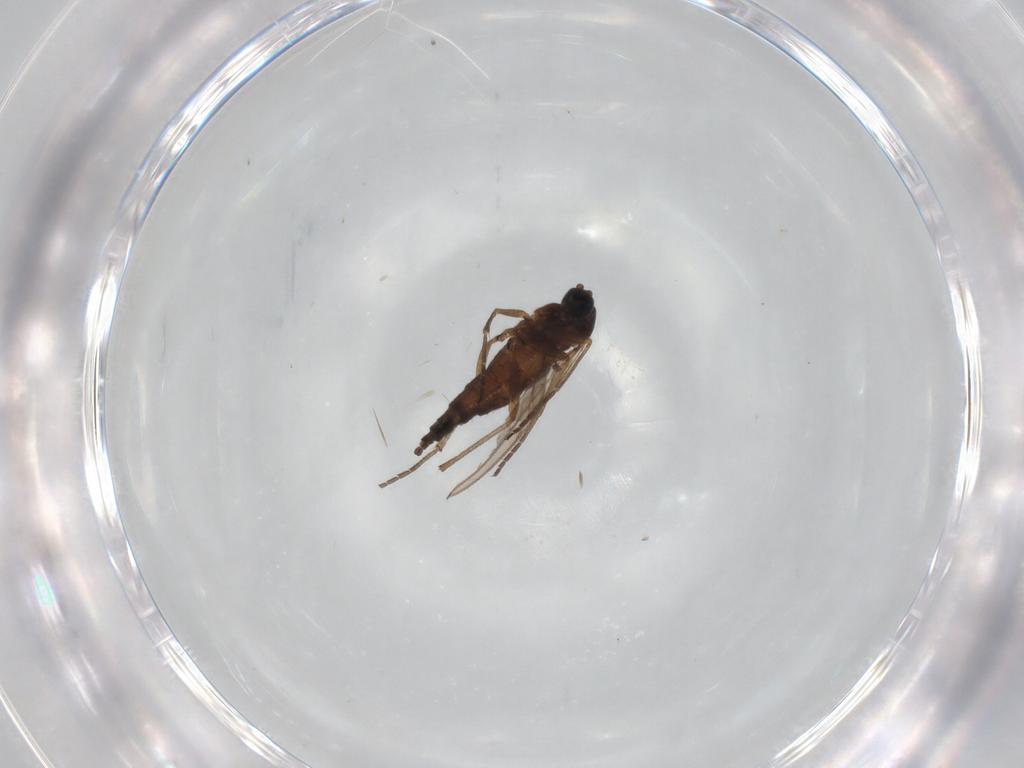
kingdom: Animalia
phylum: Arthropoda
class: Insecta
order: Diptera
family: Sciaridae
